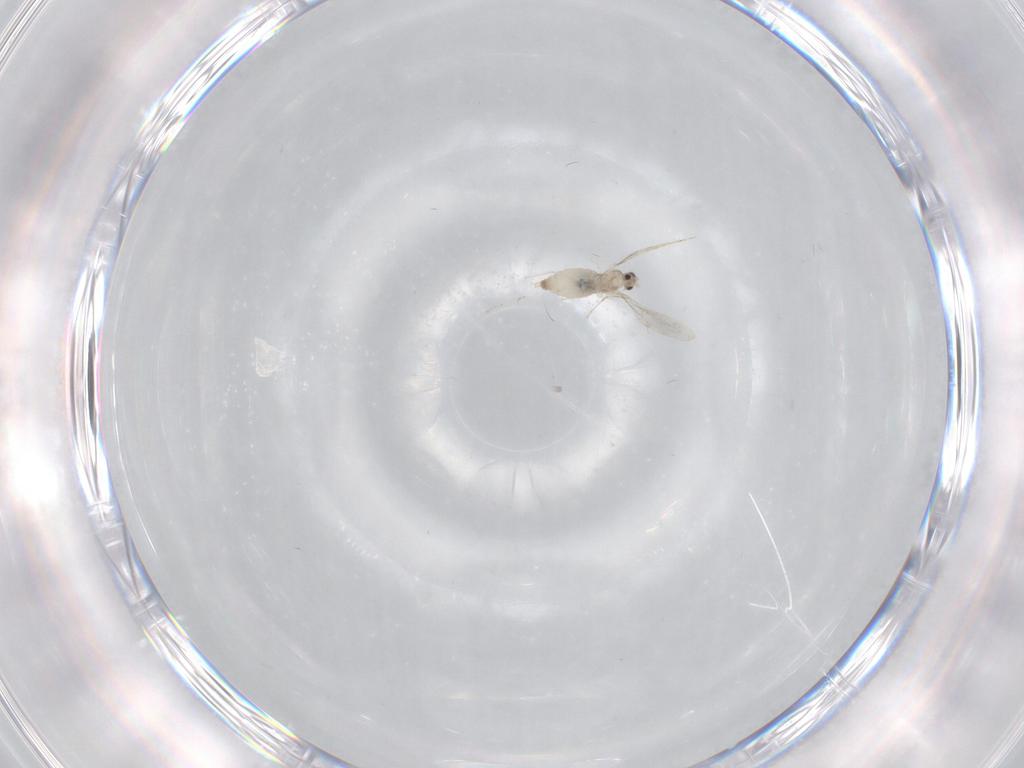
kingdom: Animalia
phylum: Arthropoda
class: Insecta
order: Diptera
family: Cecidomyiidae
